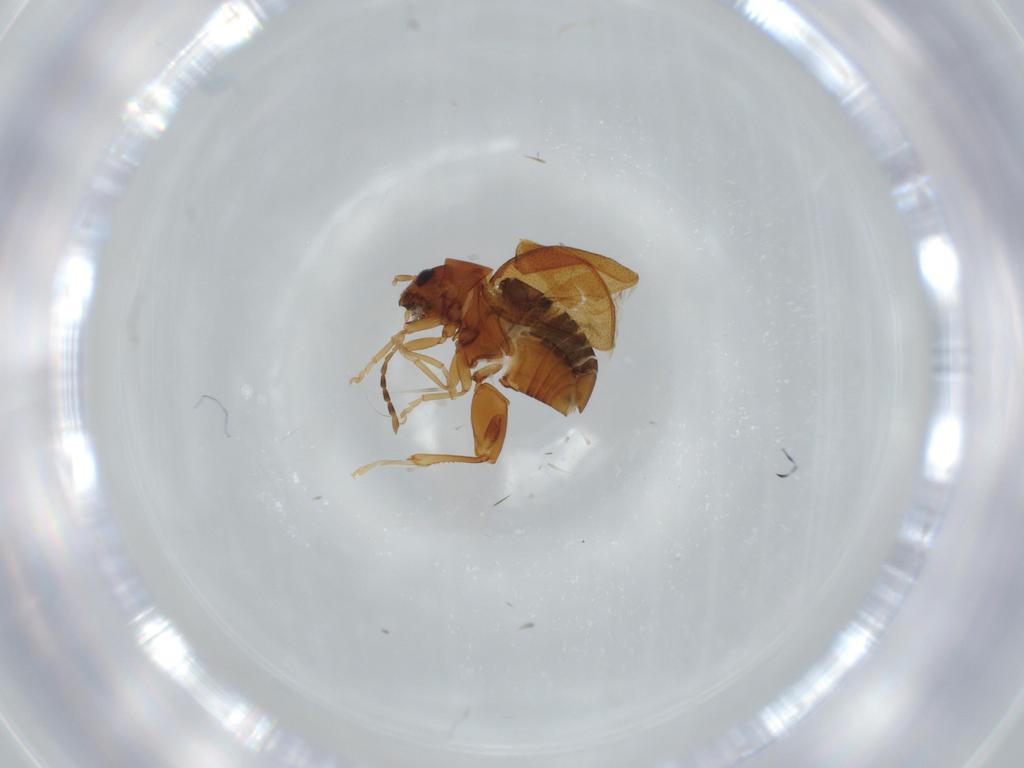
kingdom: Animalia
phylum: Arthropoda
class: Insecta
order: Coleoptera
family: Chrysomelidae
